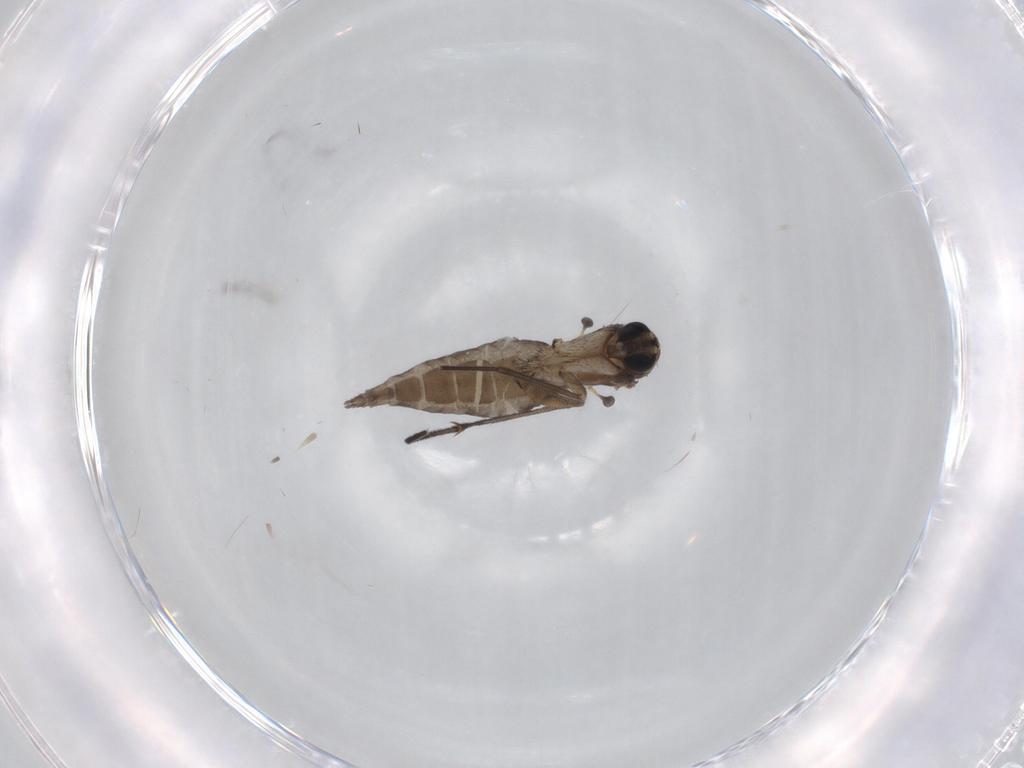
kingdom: Animalia
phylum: Arthropoda
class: Insecta
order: Diptera
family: Sciaridae
